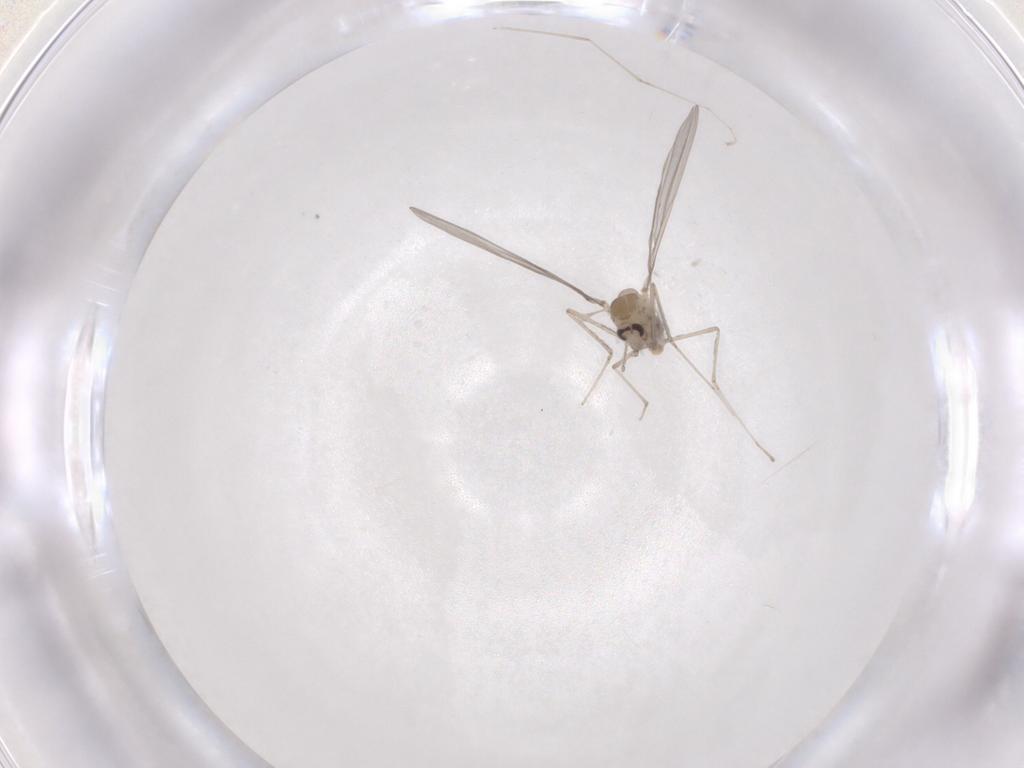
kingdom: Animalia
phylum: Arthropoda
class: Insecta
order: Diptera
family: Cecidomyiidae
